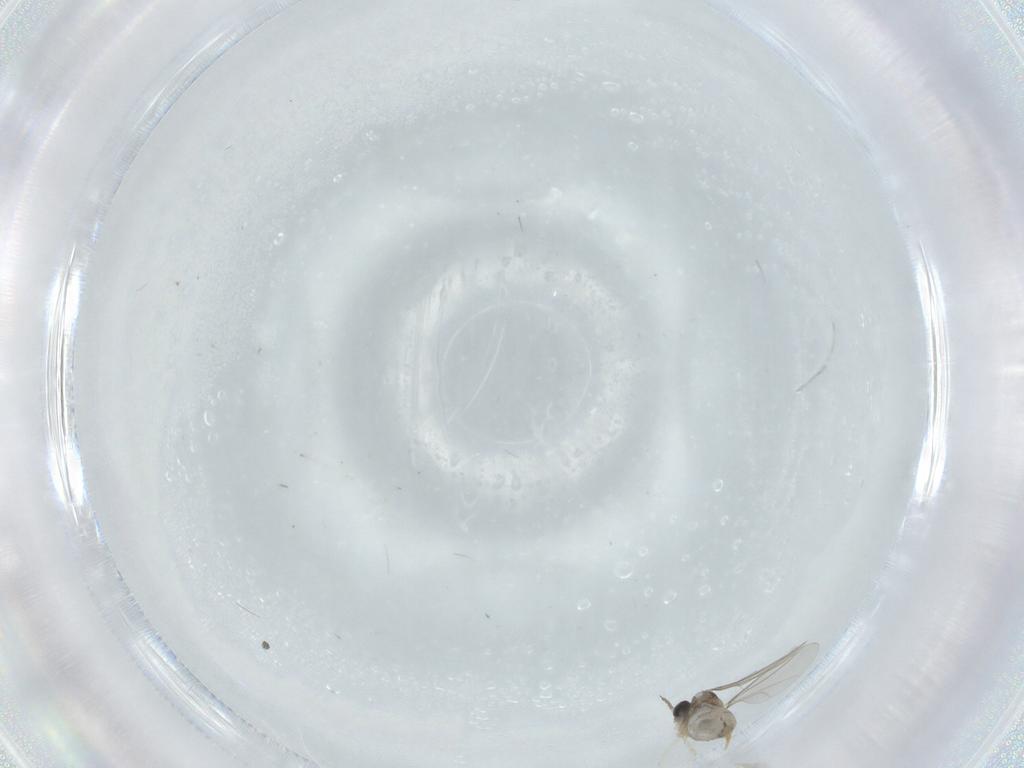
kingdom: Animalia
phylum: Arthropoda
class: Insecta
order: Diptera
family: Cecidomyiidae
